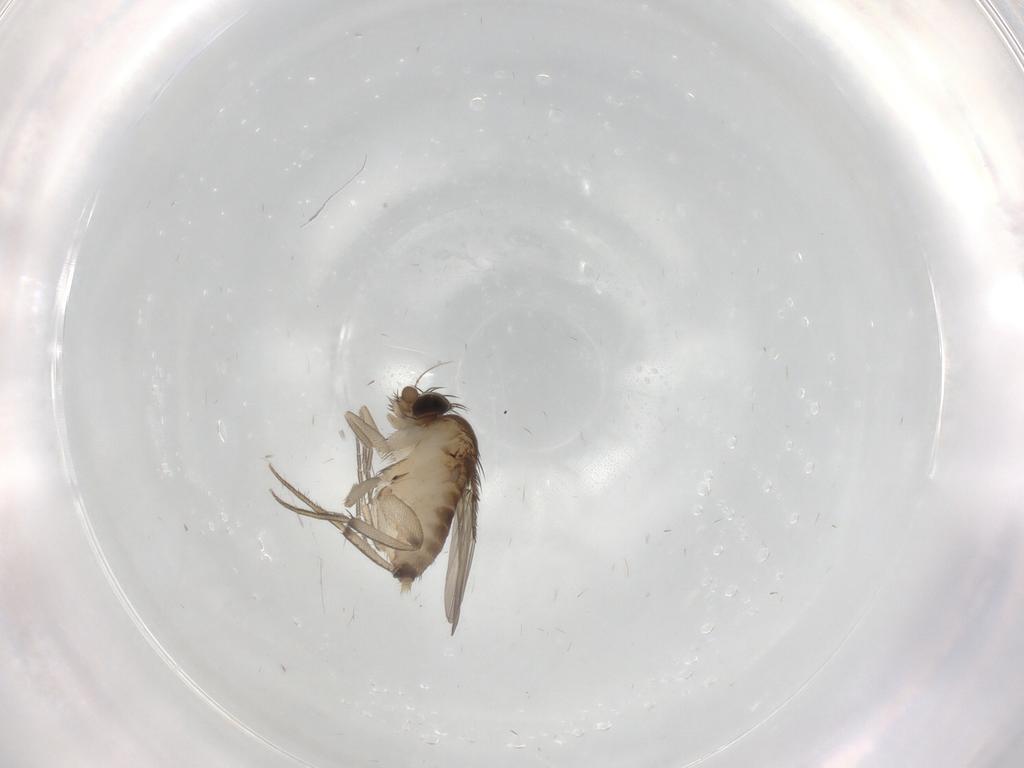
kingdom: Animalia
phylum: Arthropoda
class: Insecta
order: Diptera
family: Phoridae
